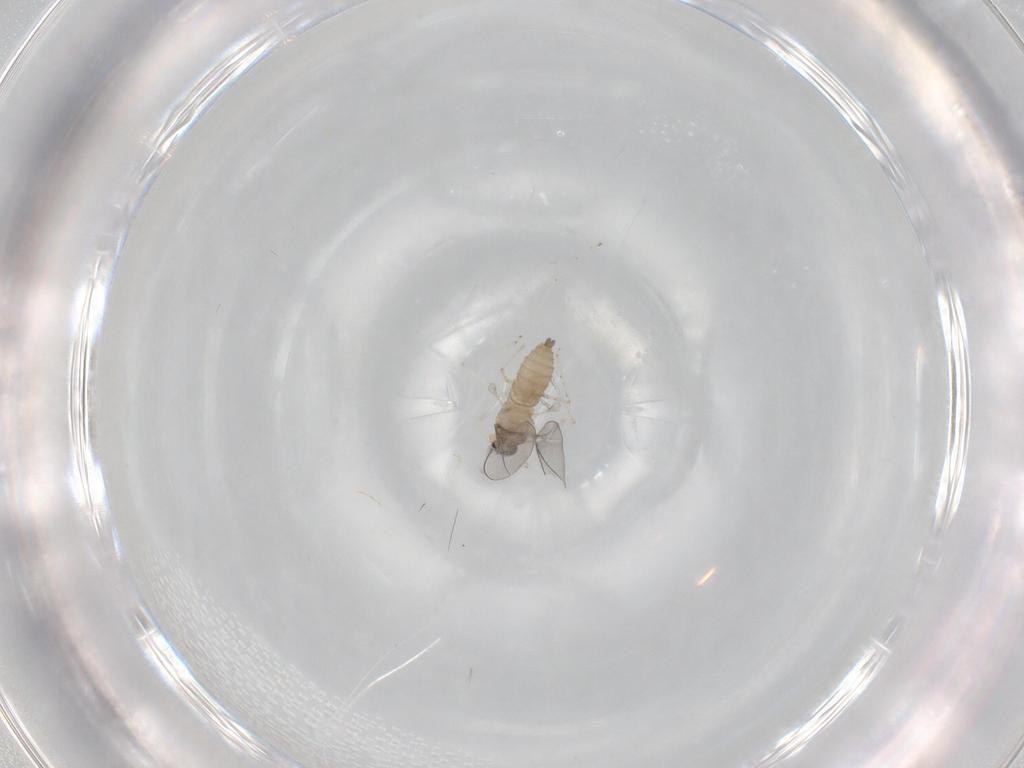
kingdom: Animalia
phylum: Arthropoda
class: Insecta
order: Diptera
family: Cecidomyiidae
